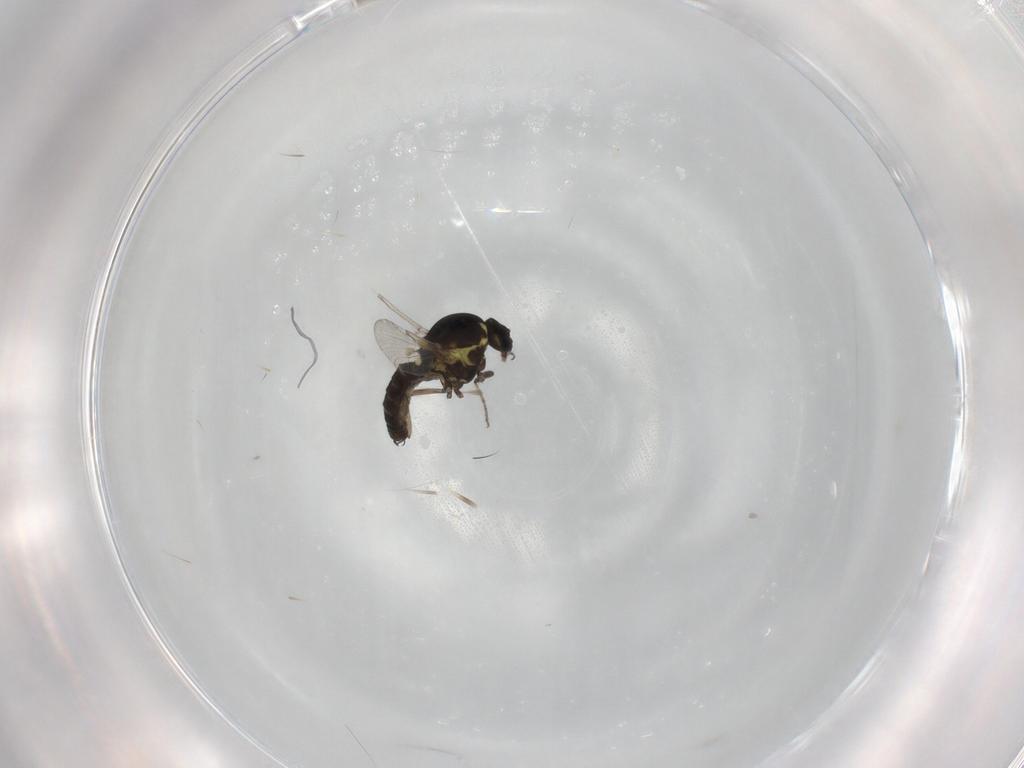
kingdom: Animalia
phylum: Arthropoda
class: Insecta
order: Diptera
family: Ceratopogonidae
